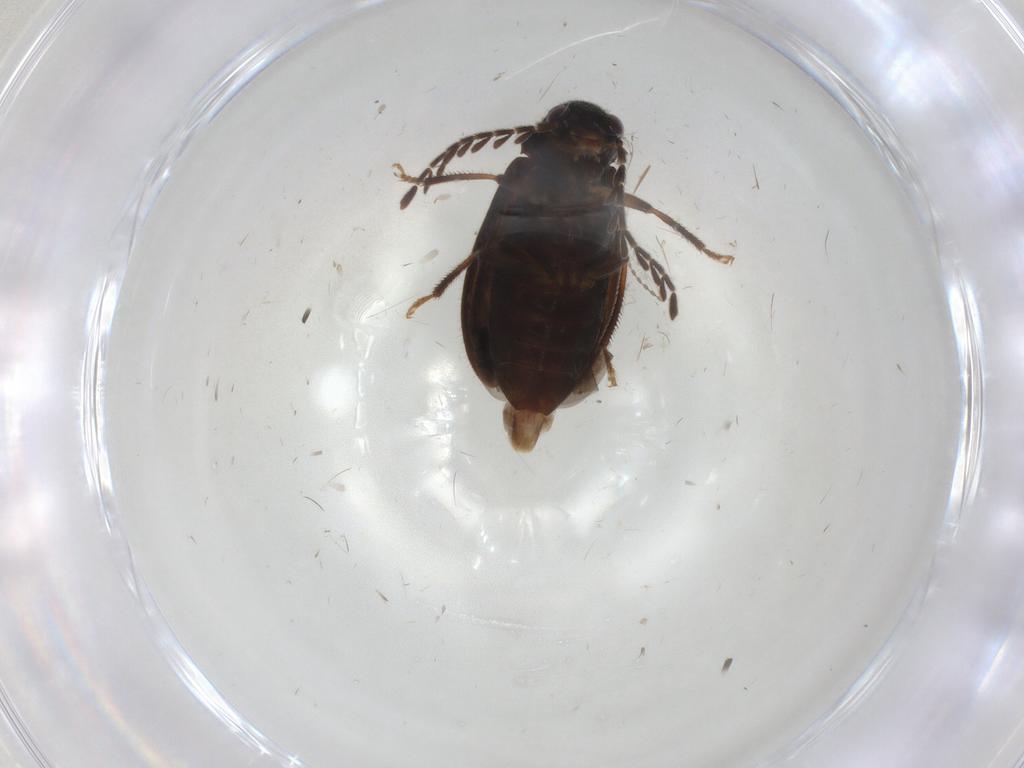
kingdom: Animalia
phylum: Arthropoda
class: Insecta
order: Coleoptera
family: Ptilodactylidae
